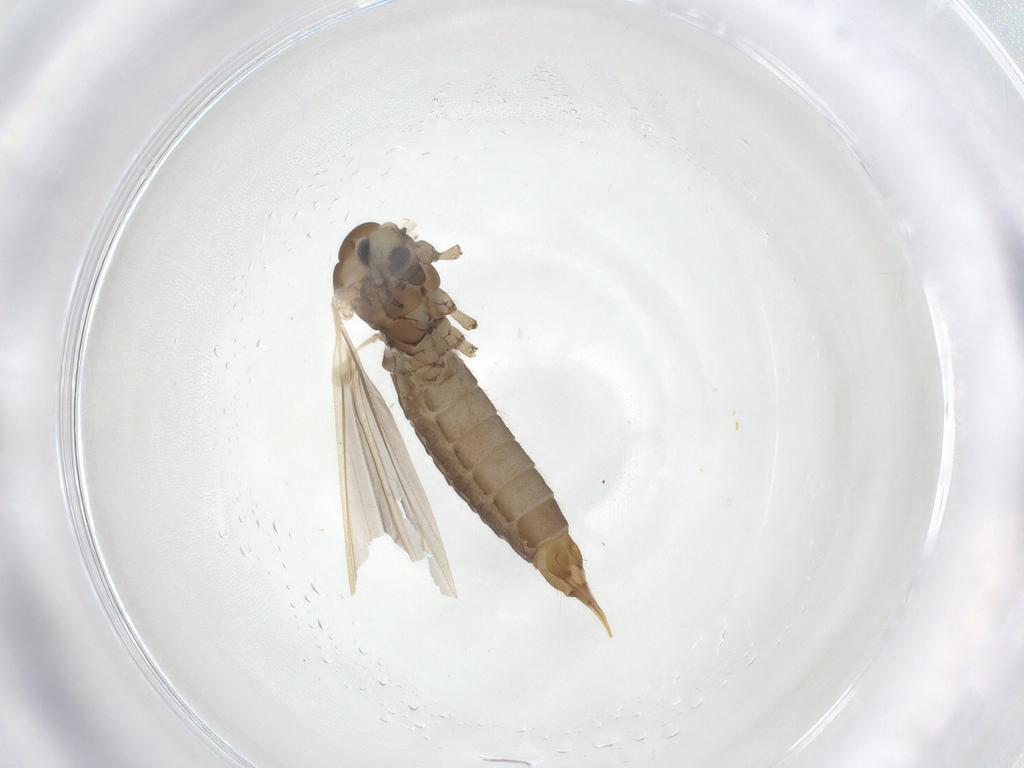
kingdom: Animalia
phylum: Arthropoda
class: Insecta
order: Diptera
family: Limoniidae
